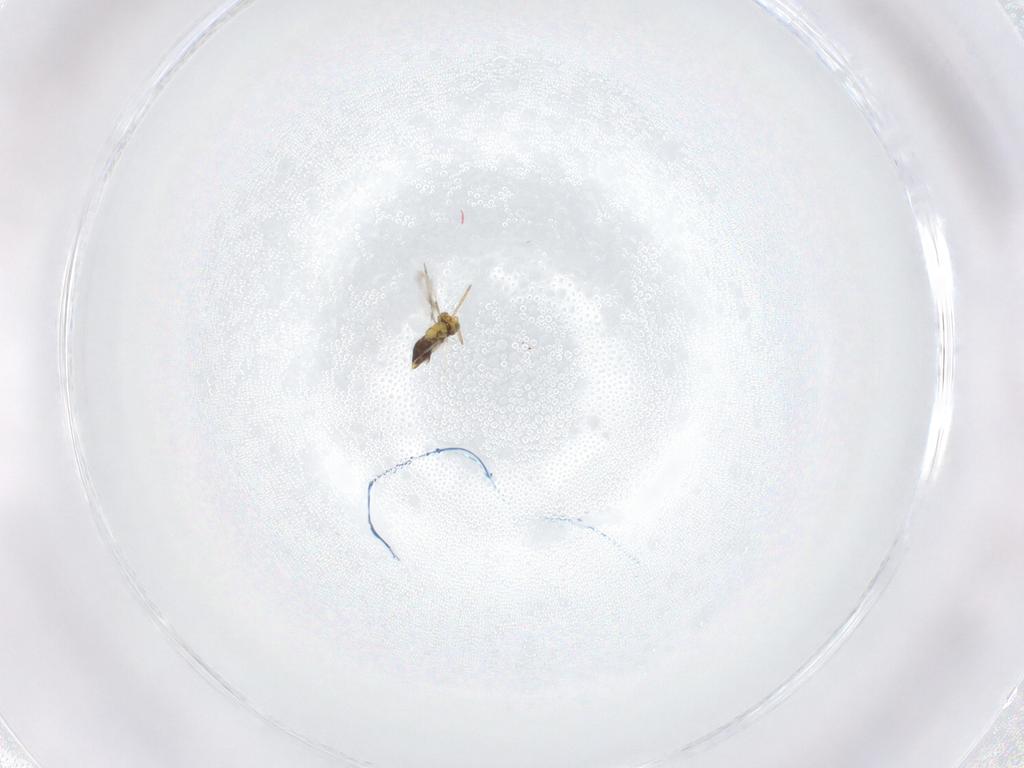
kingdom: Animalia
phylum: Arthropoda
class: Insecta
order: Hymenoptera
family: Aphelinidae
